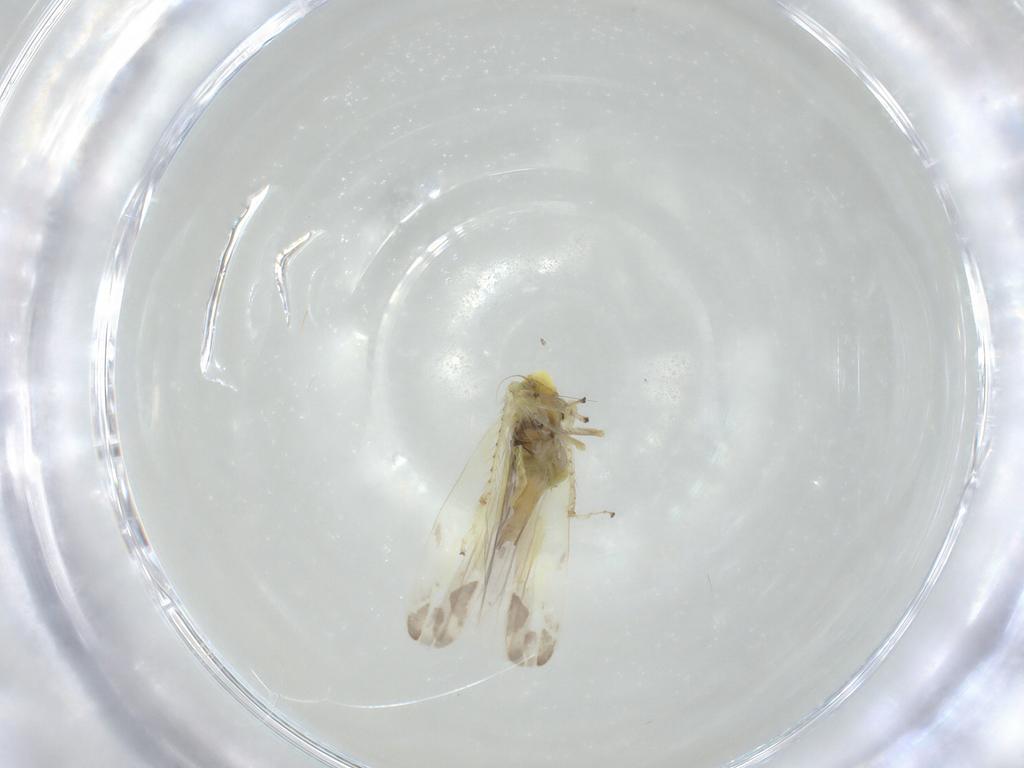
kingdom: Animalia
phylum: Arthropoda
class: Insecta
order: Hemiptera
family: Cicadellidae
